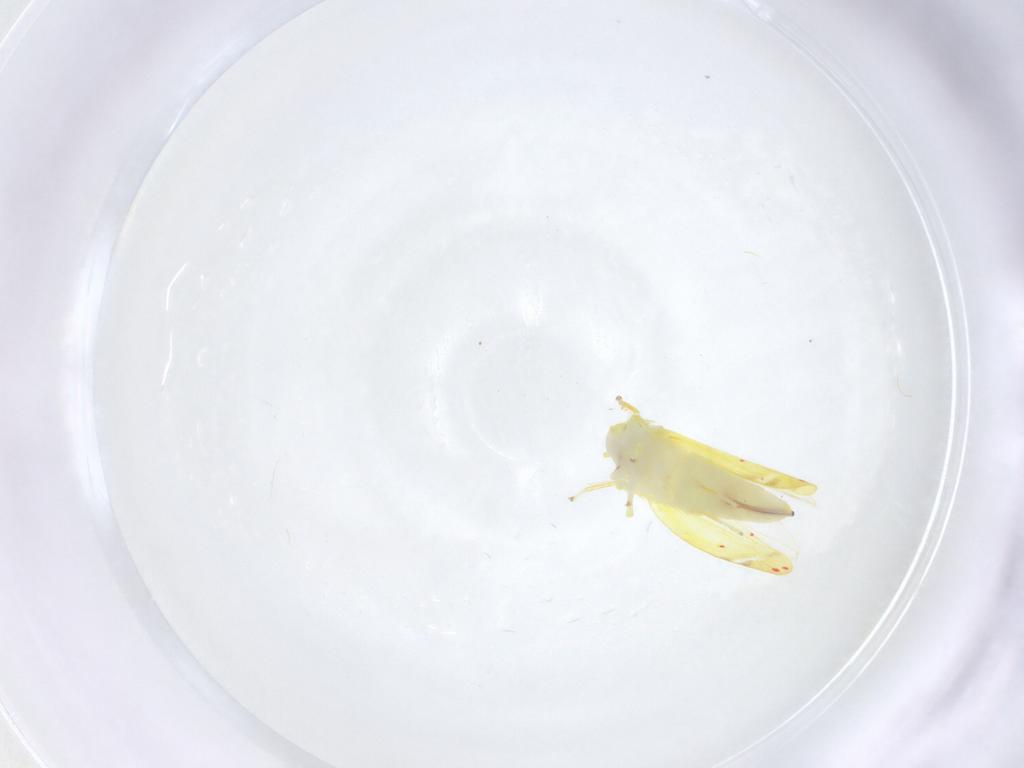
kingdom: Animalia
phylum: Arthropoda
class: Insecta
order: Hemiptera
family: Cicadellidae
